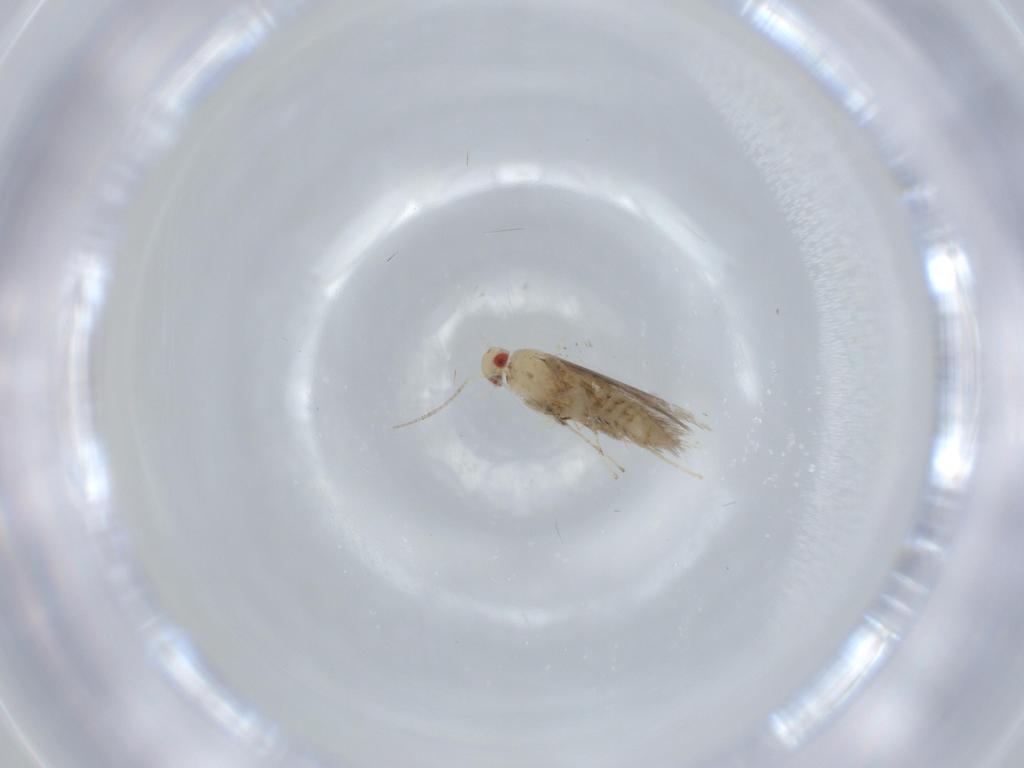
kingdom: Animalia
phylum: Arthropoda
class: Insecta
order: Lepidoptera
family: Gracillariidae
